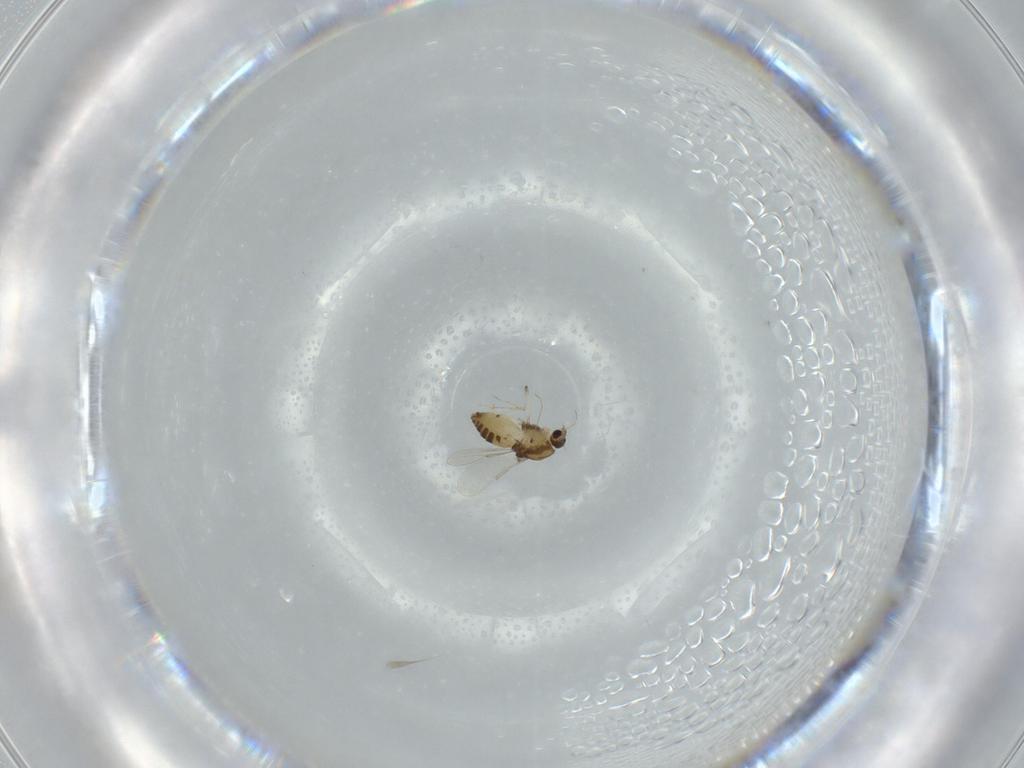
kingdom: Animalia
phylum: Arthropoda
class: Insecta
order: Diptera
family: Chironomidae
